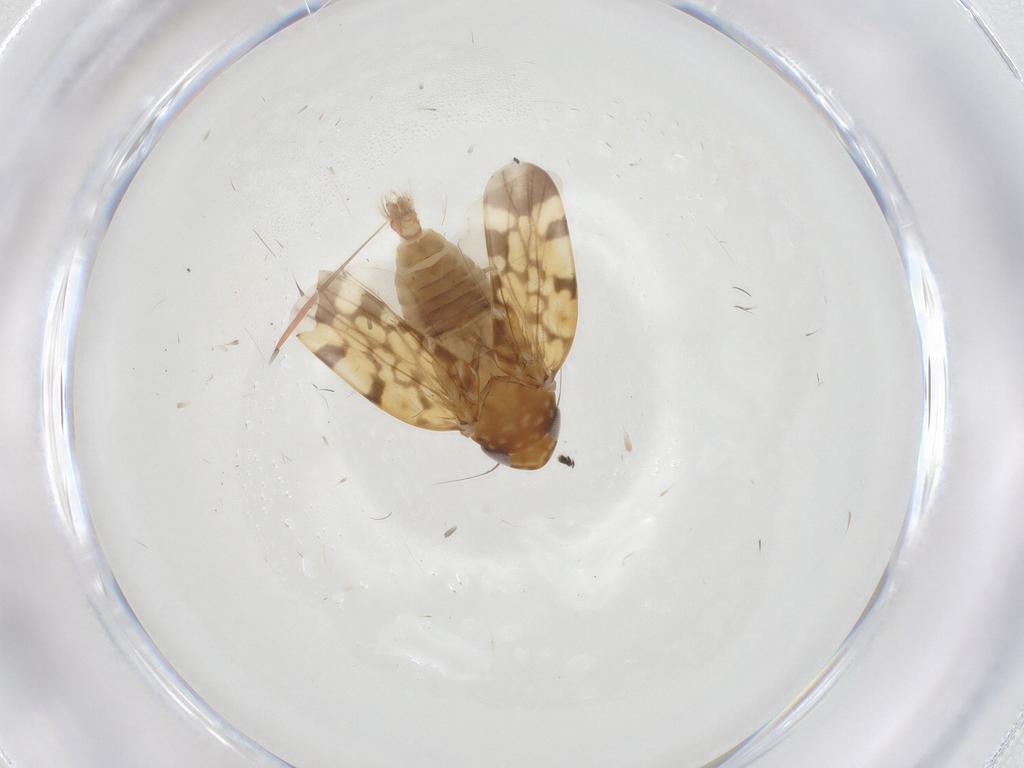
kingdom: Animalia
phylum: Arthropoda
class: Insecta
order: Hemiptera
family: Cicadellidae
